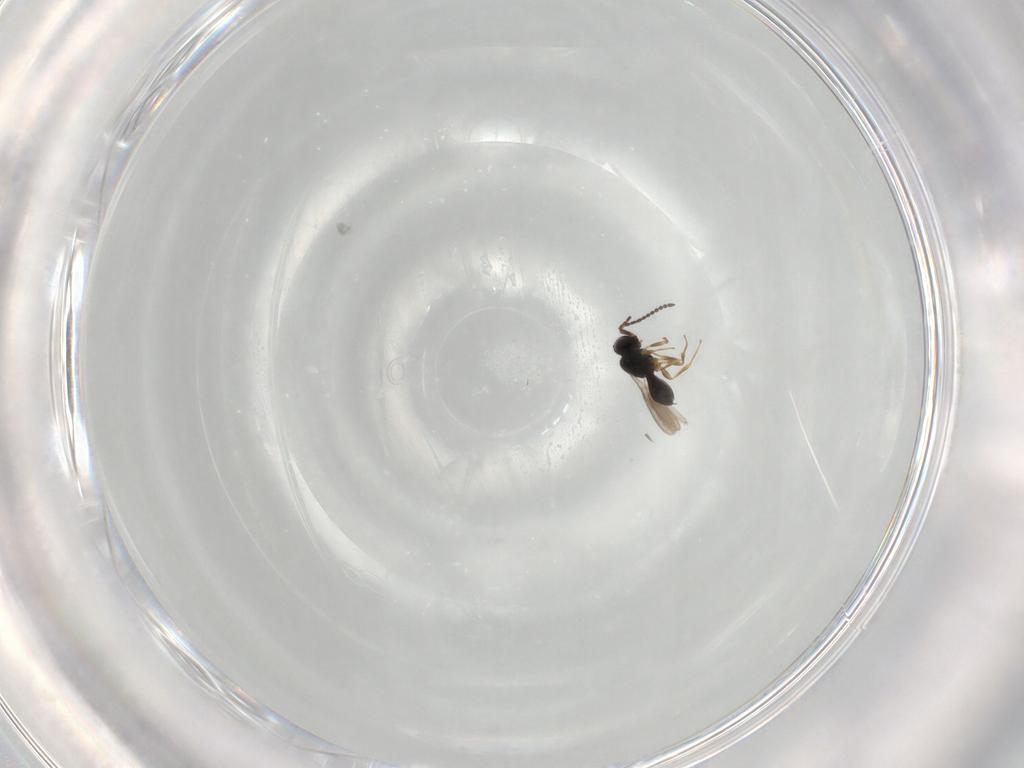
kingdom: Animalia
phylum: Arthropoda
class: Insecta
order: Hymenoptera
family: Scelionidae
